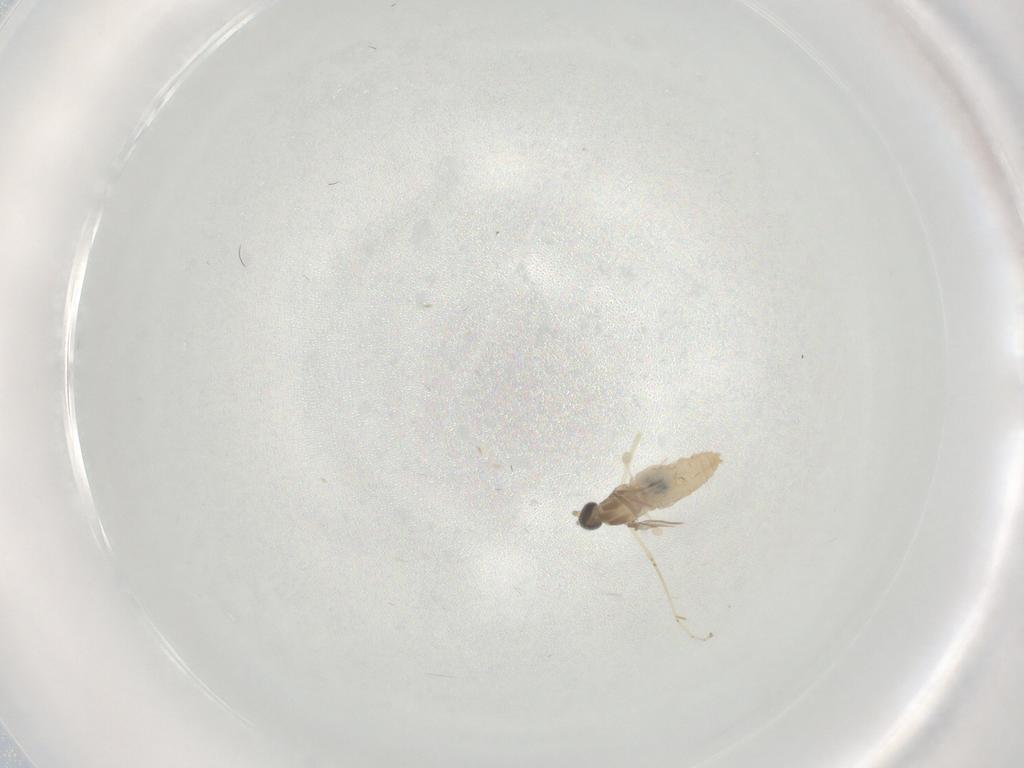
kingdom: Animalia
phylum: Arthropoda
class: Insecta
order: Diptera
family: Cecidomyiidae
